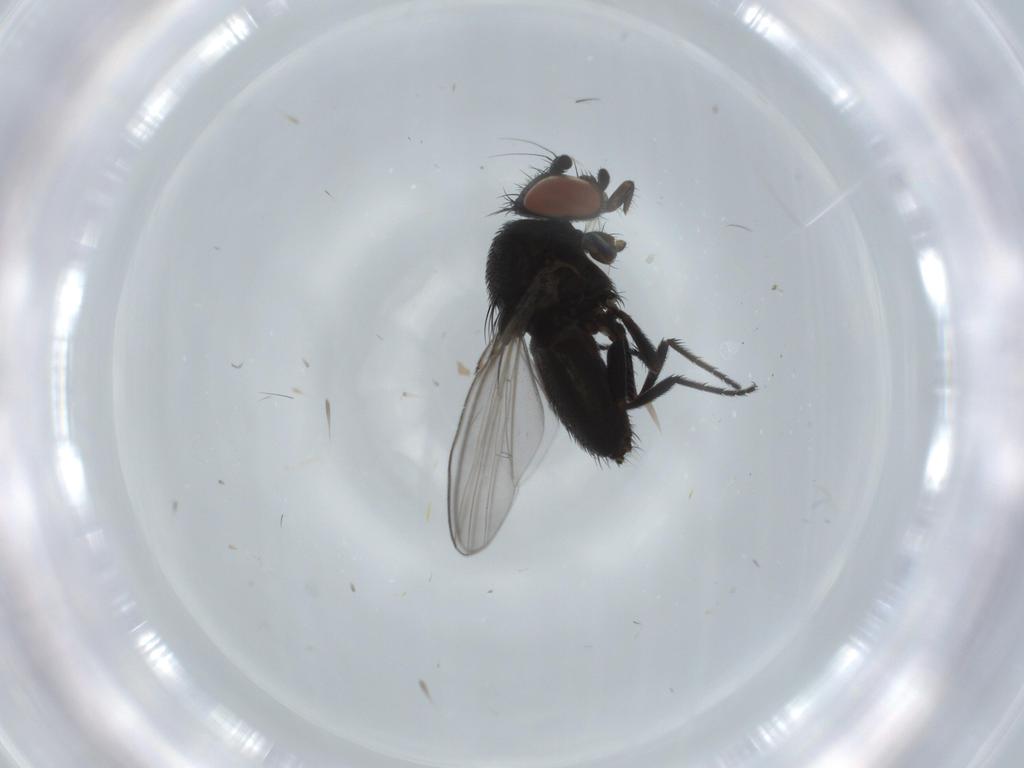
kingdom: Animalia
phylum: Arthropoda
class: Insecta
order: Diptera
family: Milichiidae
